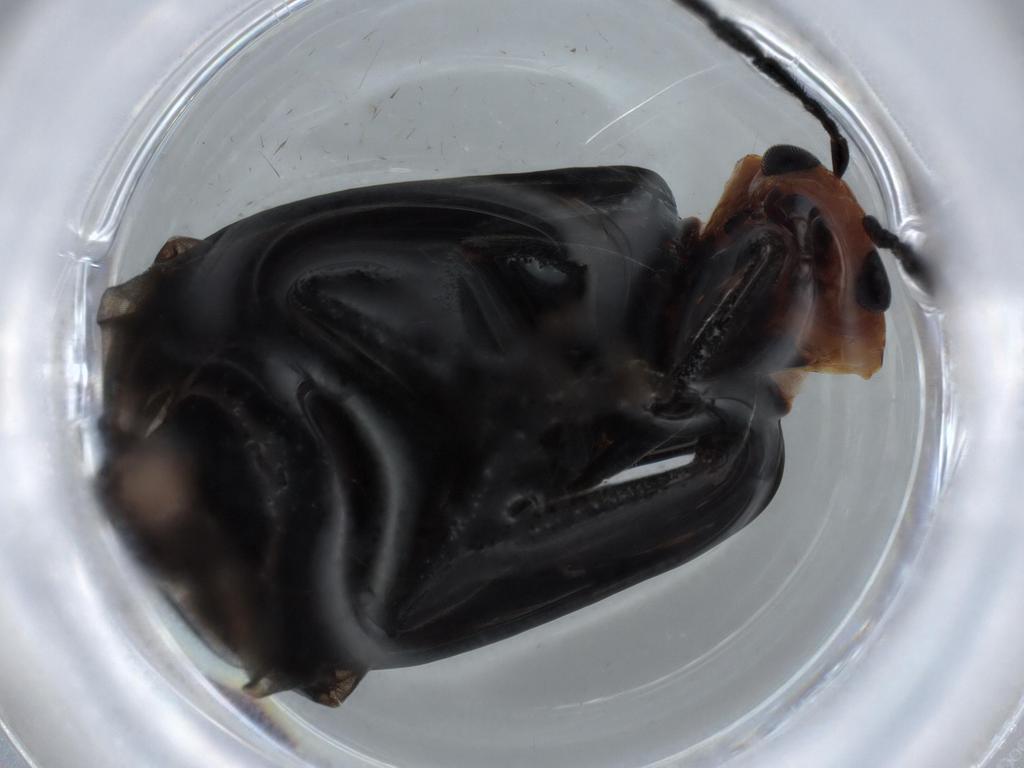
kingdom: Animalia
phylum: Arthropoda
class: Insecta
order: Coleoptera
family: Chrysomelidae
